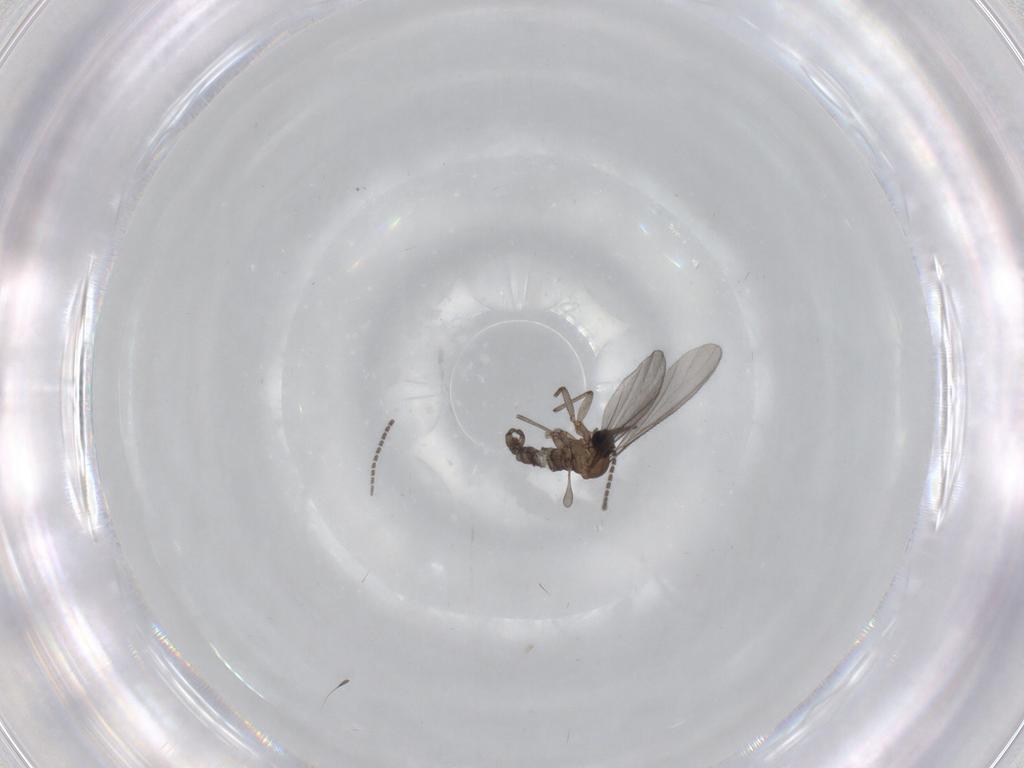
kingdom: Animalia
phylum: Arthropoda
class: Insecta
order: Diptera
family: Sciaridae
